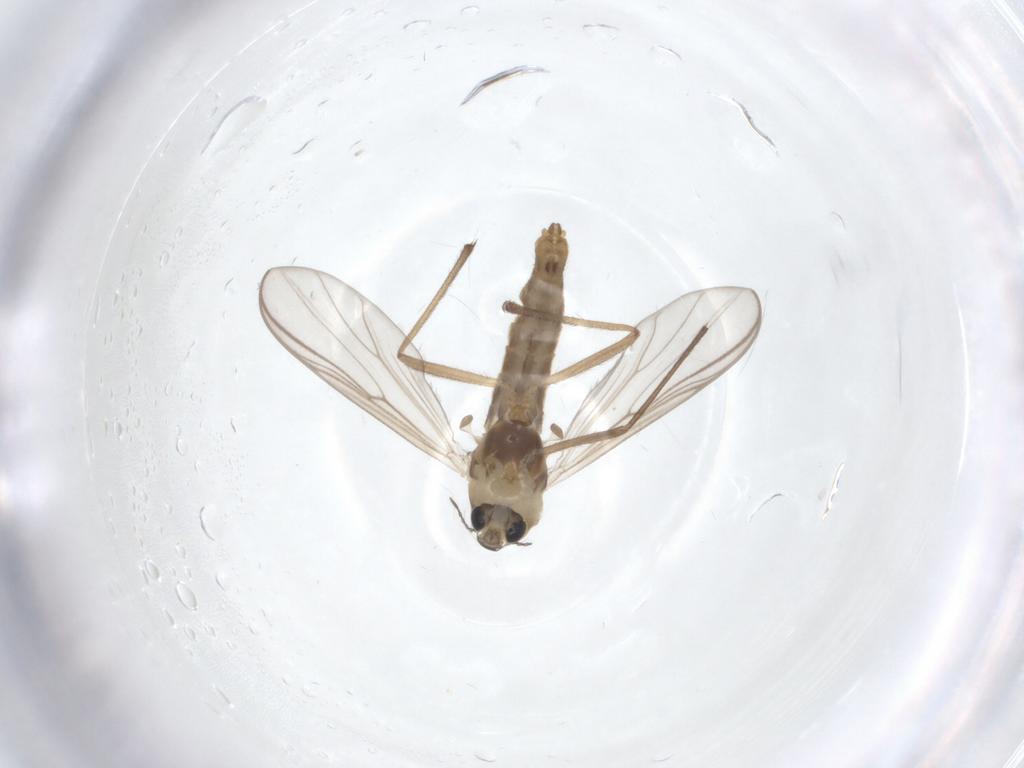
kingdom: Animalia
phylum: Arthropoda
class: Insecta
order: Diptera
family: Chironomidae
